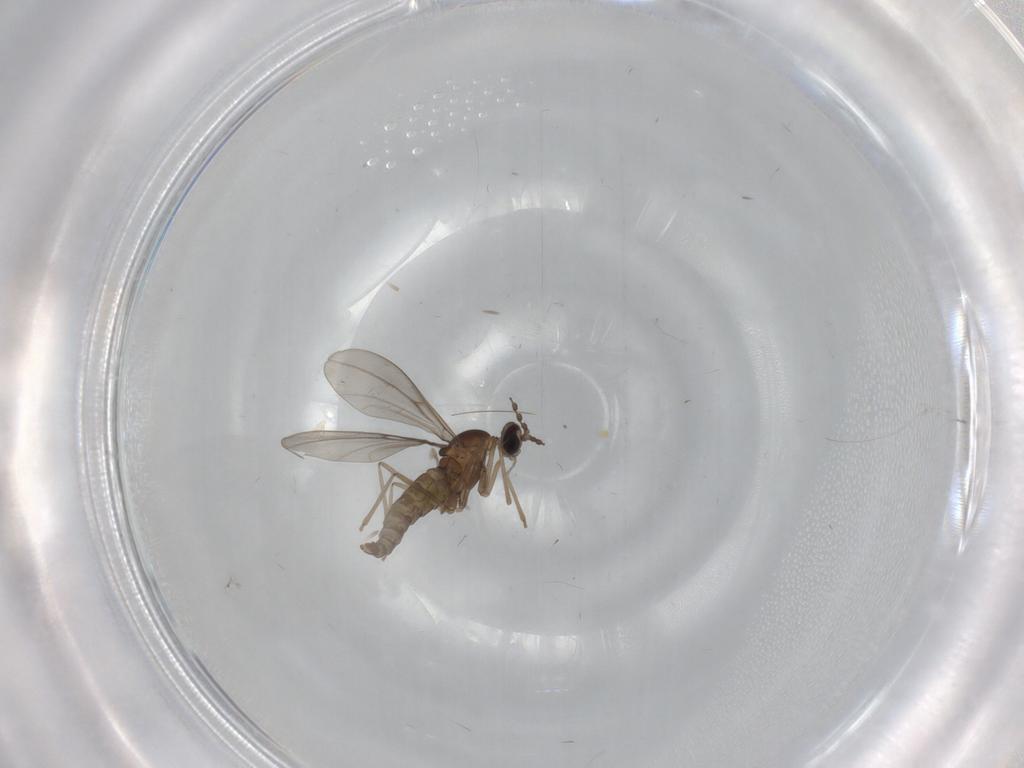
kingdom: Animalia
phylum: Arthropoda
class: Insecta
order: Diptera
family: Cecidomyiidae
